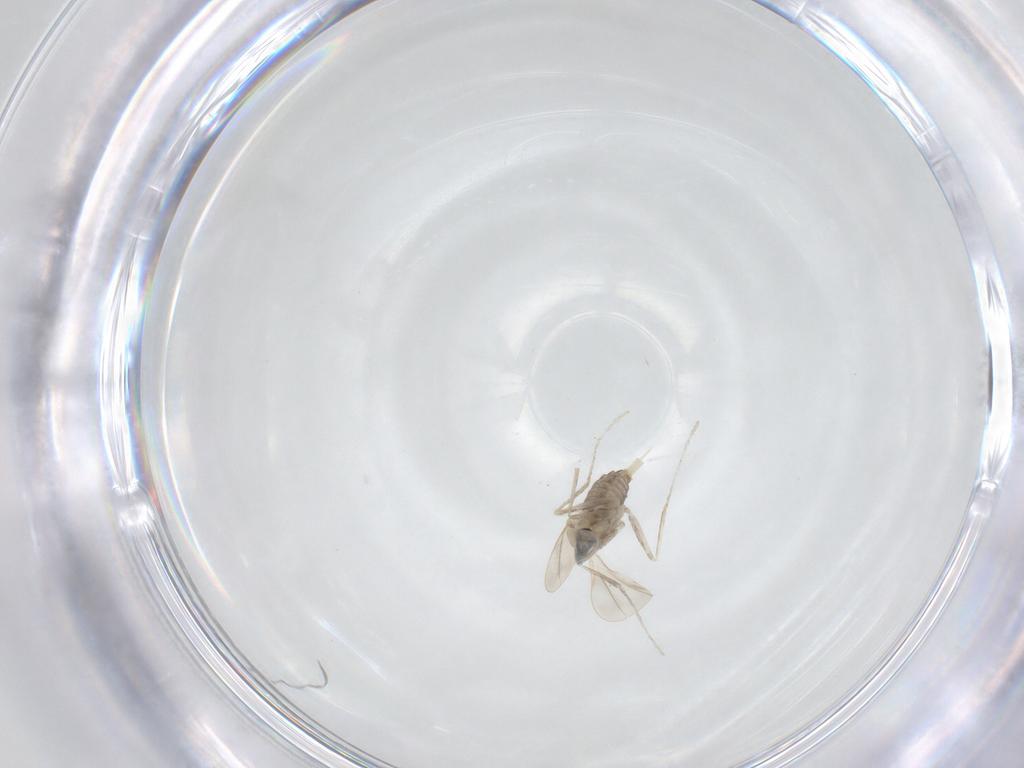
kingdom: Animalia
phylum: Arthropoda
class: Insecta
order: Diptera
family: Cecidomyiidae
